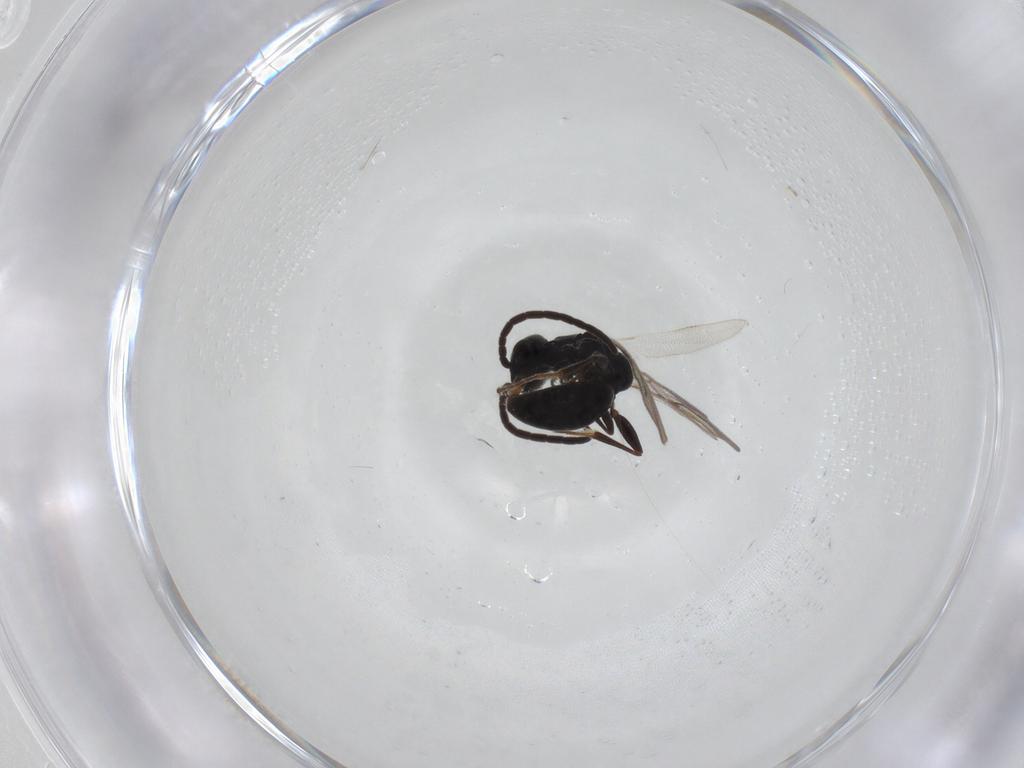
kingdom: Animalia
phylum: Arthropoda
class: Insecta
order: Hymenoptera
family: Bethylidae
